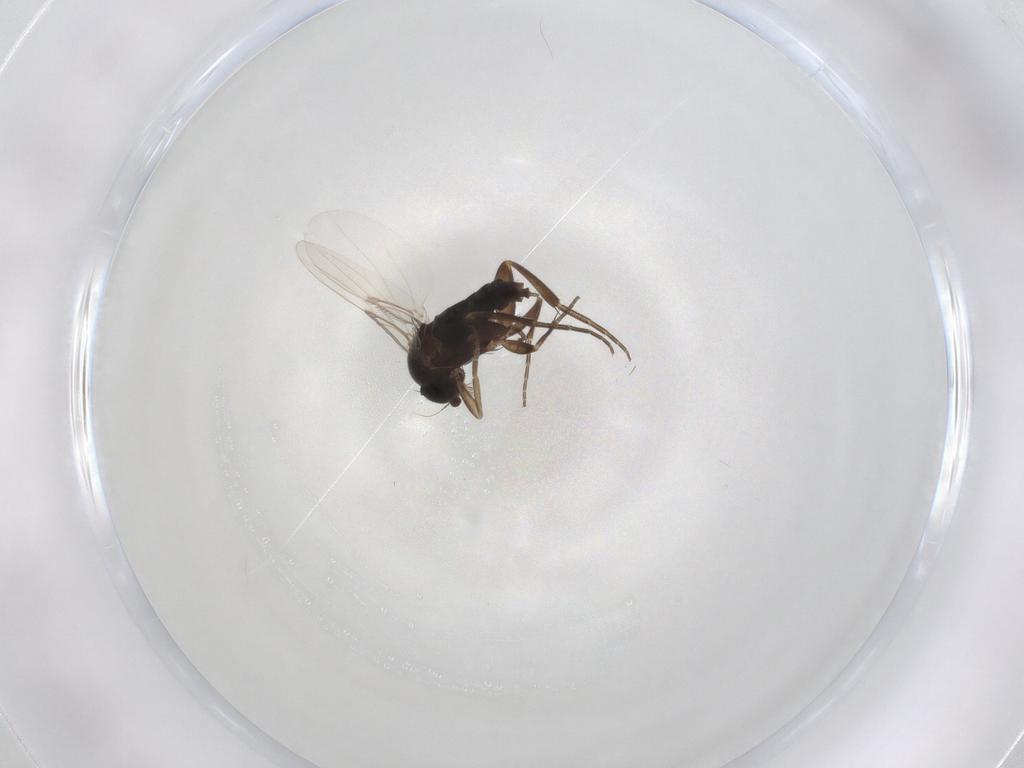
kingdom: Animalia
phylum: Arthropoda
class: Insecta
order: Diptera
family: Phoridae
